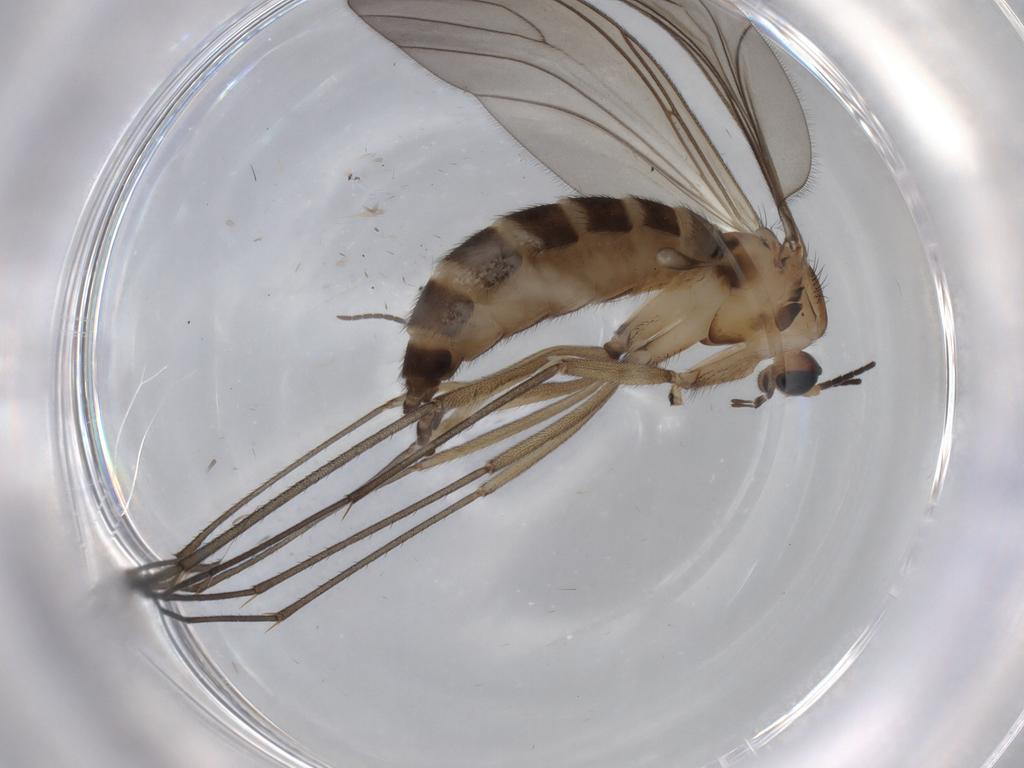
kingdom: Animalia
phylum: Arthropoda
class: Insecta
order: Diptera
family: Sciaridae
